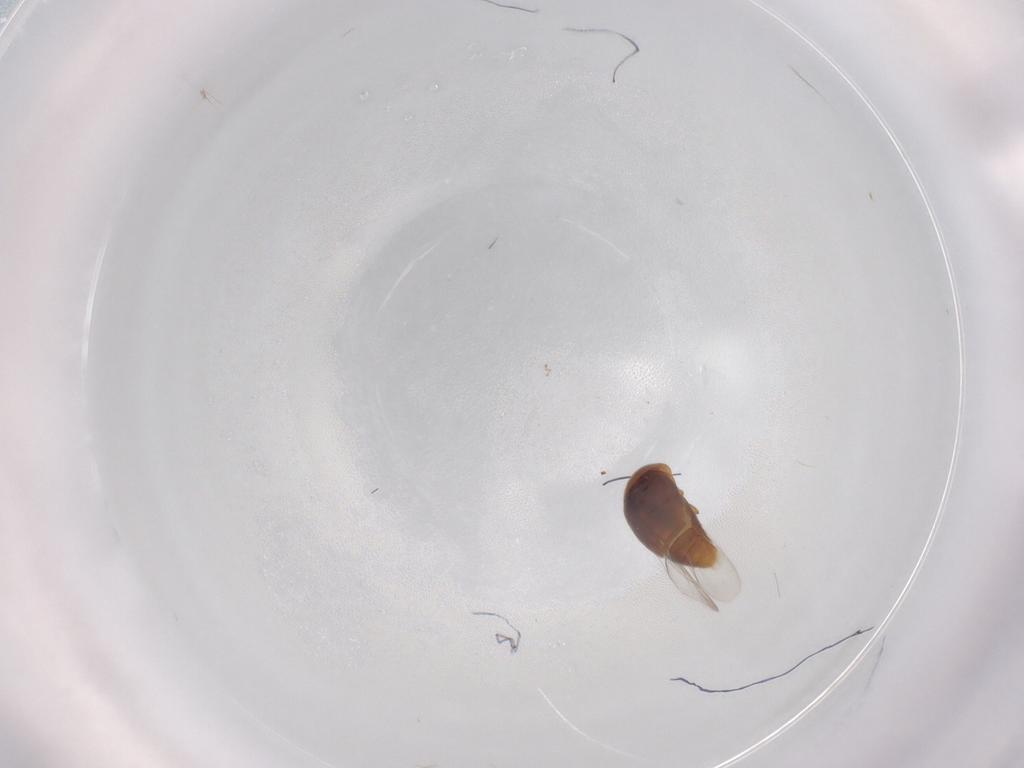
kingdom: Animalia
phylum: Arthropoda
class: Insecta
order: Coleoptera
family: Corylophidae
